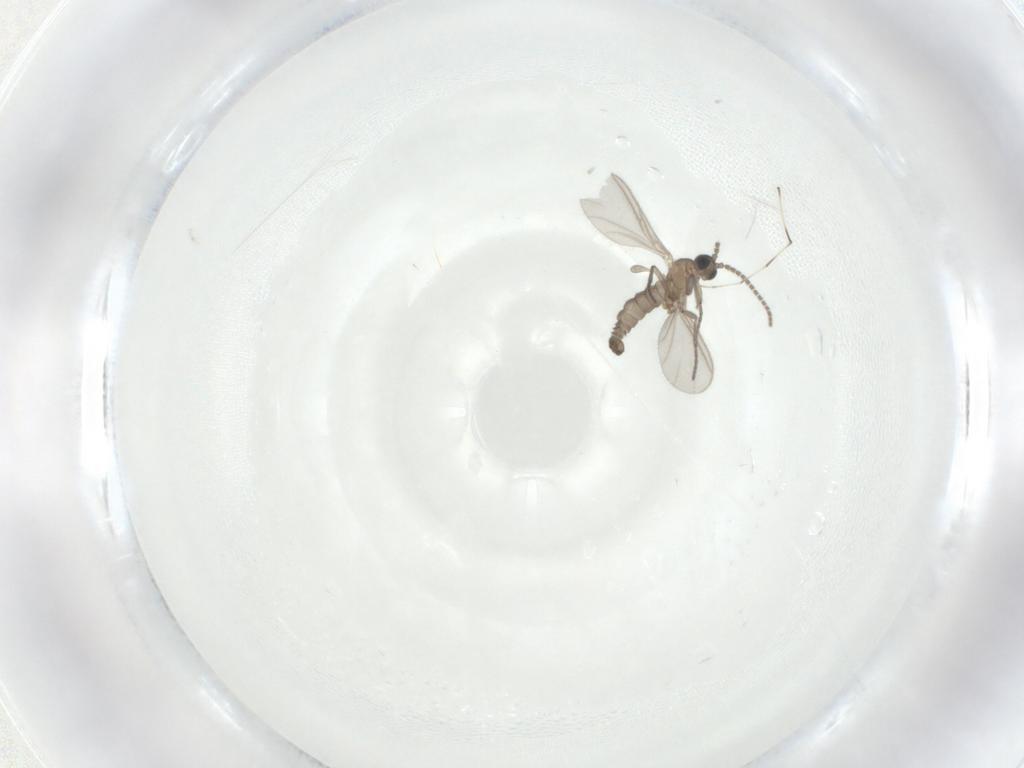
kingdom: Animalia
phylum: Arthropoda
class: Insecta
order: Diptera
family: Sciaridae
